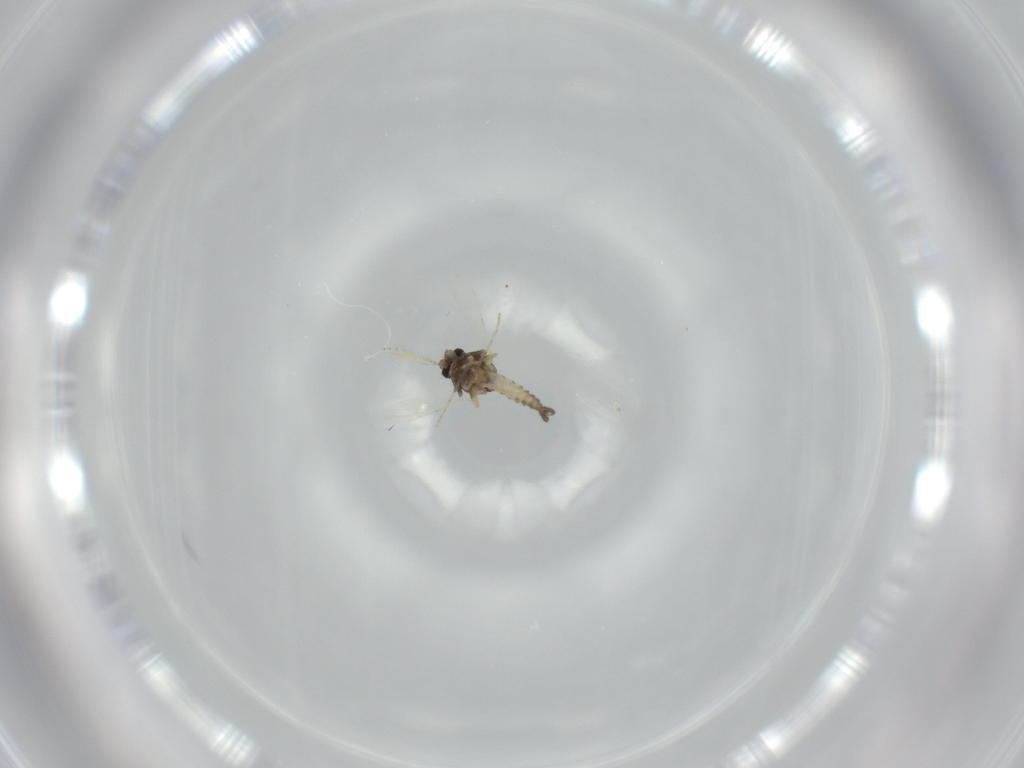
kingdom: Animalia
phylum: Arthropoda
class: Insecta
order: Diptera
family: Ceratopogonidae
